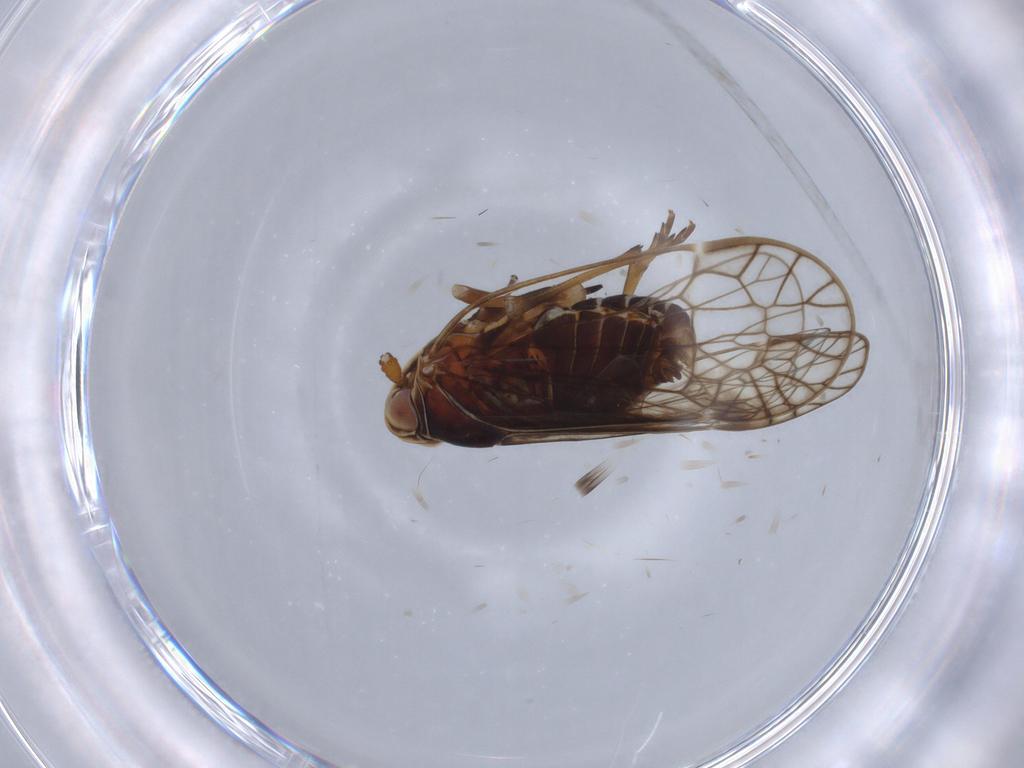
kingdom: Animalia
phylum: Arthropoda
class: Insecta
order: Hemiptera
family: Kinnaridae
